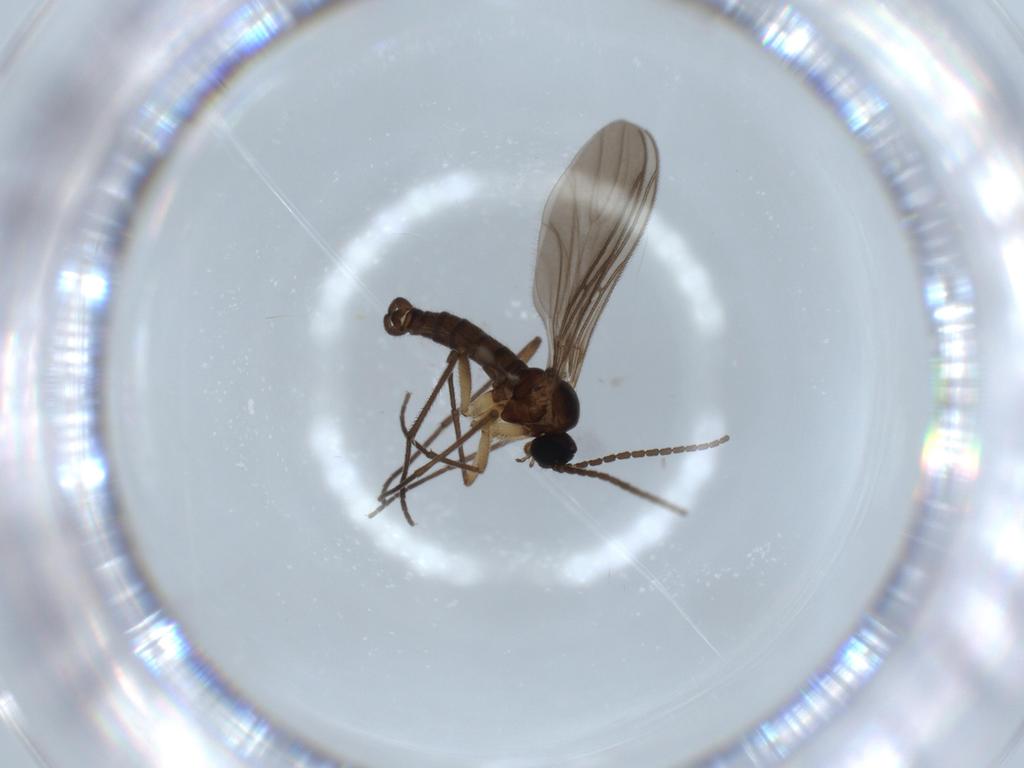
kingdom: Animalia
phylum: Arthropoda
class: Insecta
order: Diptera
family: Sciaridae
